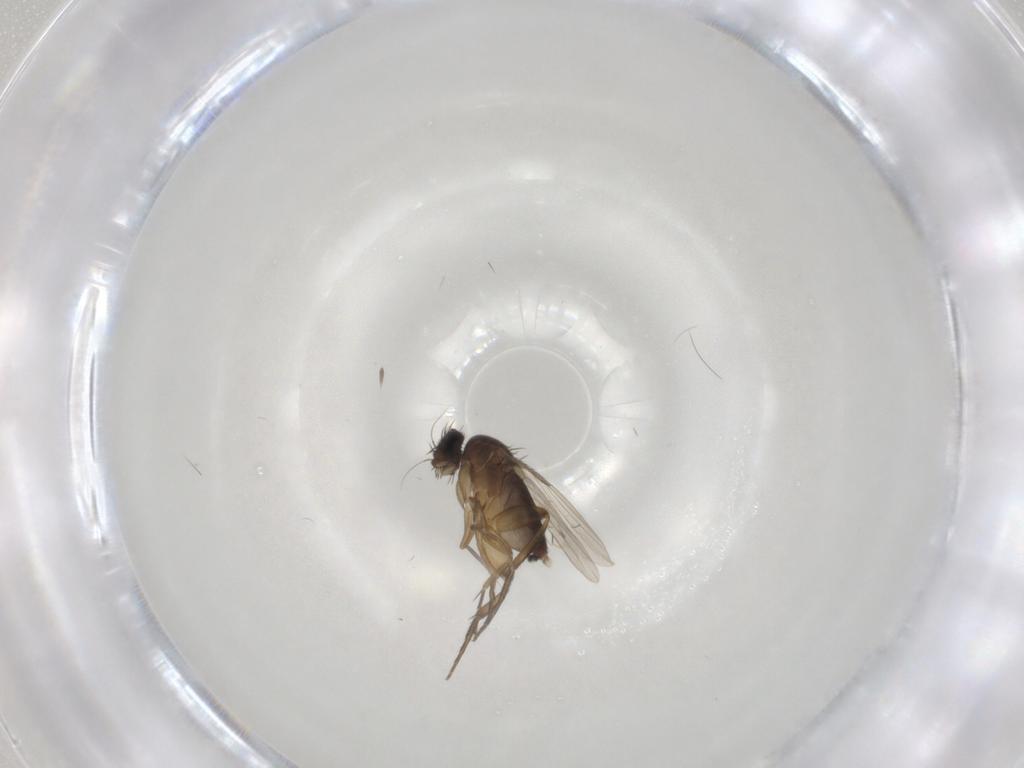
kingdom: Animalia
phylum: Arthropoda
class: Insecta
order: Diptera
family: Phoridae
